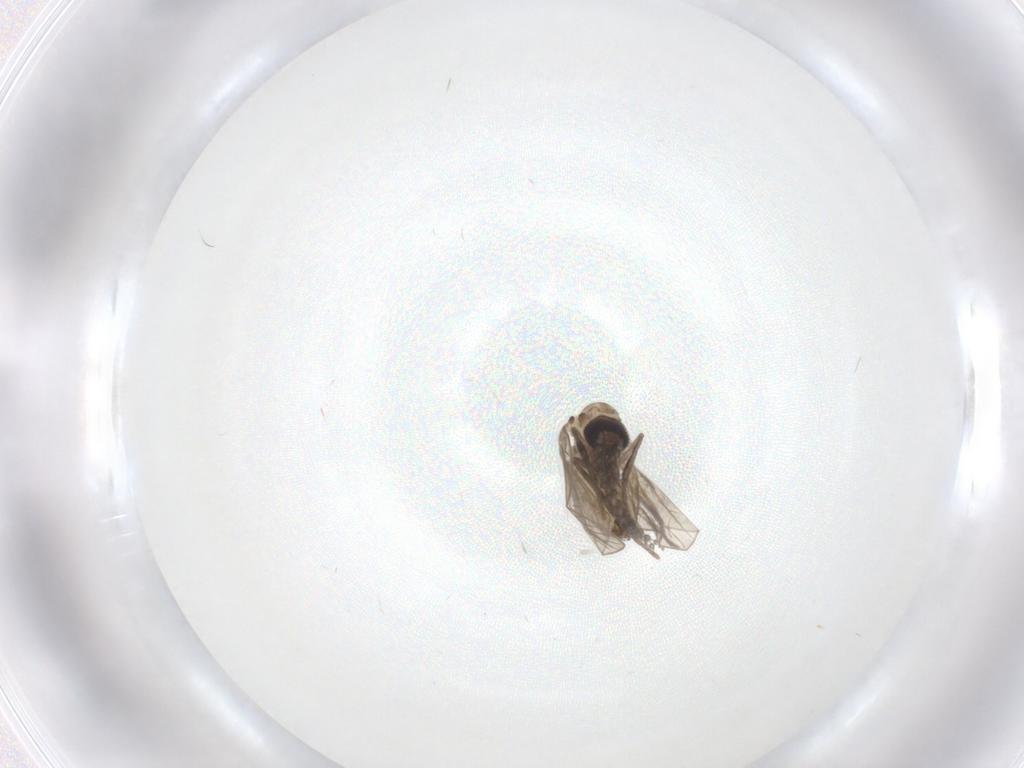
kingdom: Animalia
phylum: Arthropoda
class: Insecta
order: Diptera
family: Psychodidae
